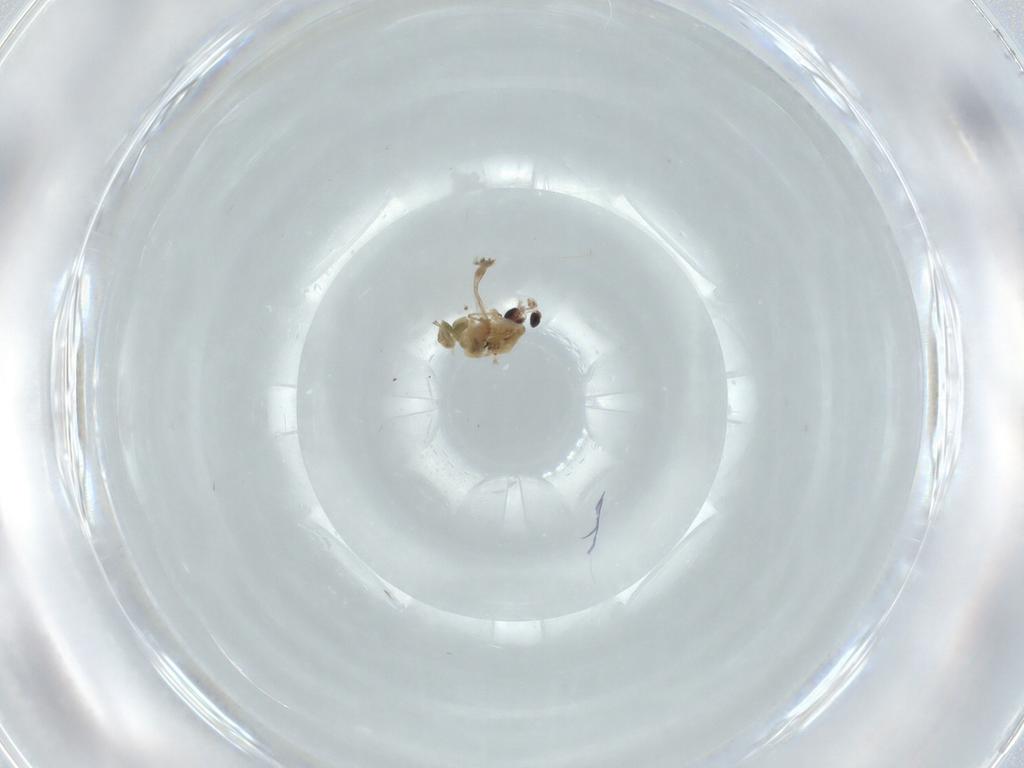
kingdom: Animalia
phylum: Arthropoda
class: Insecta
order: Diptera
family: Chironomidae
